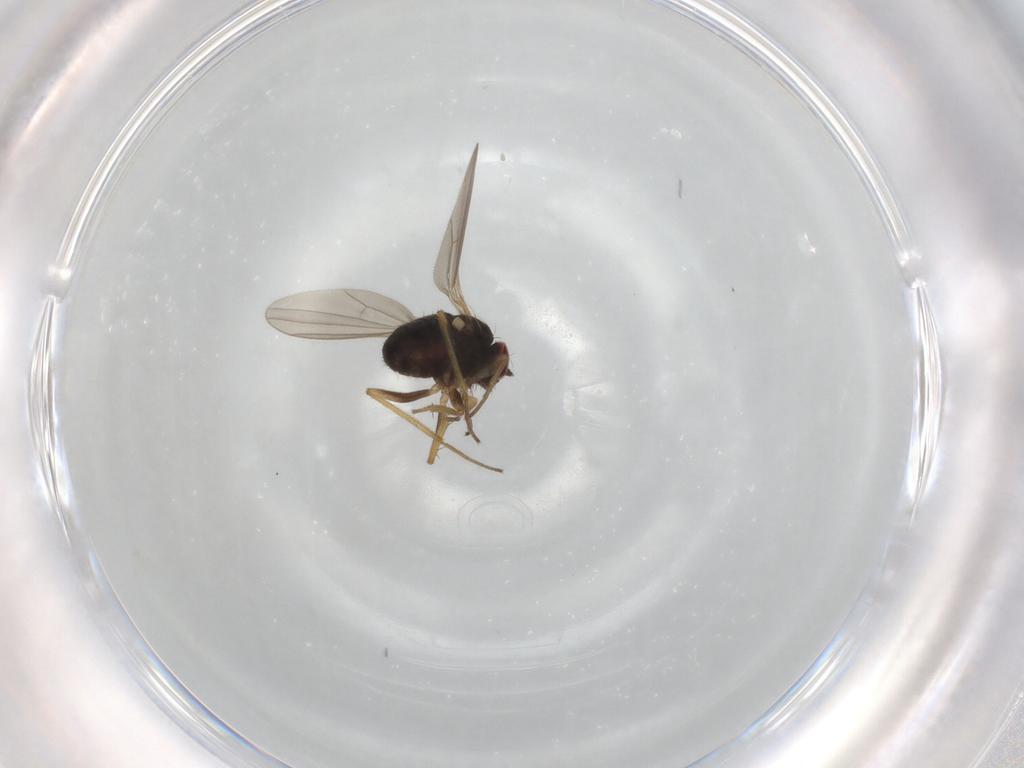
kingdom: Animalia
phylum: Arthropoda
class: Insecta
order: Diptera
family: Dolichopodidae
